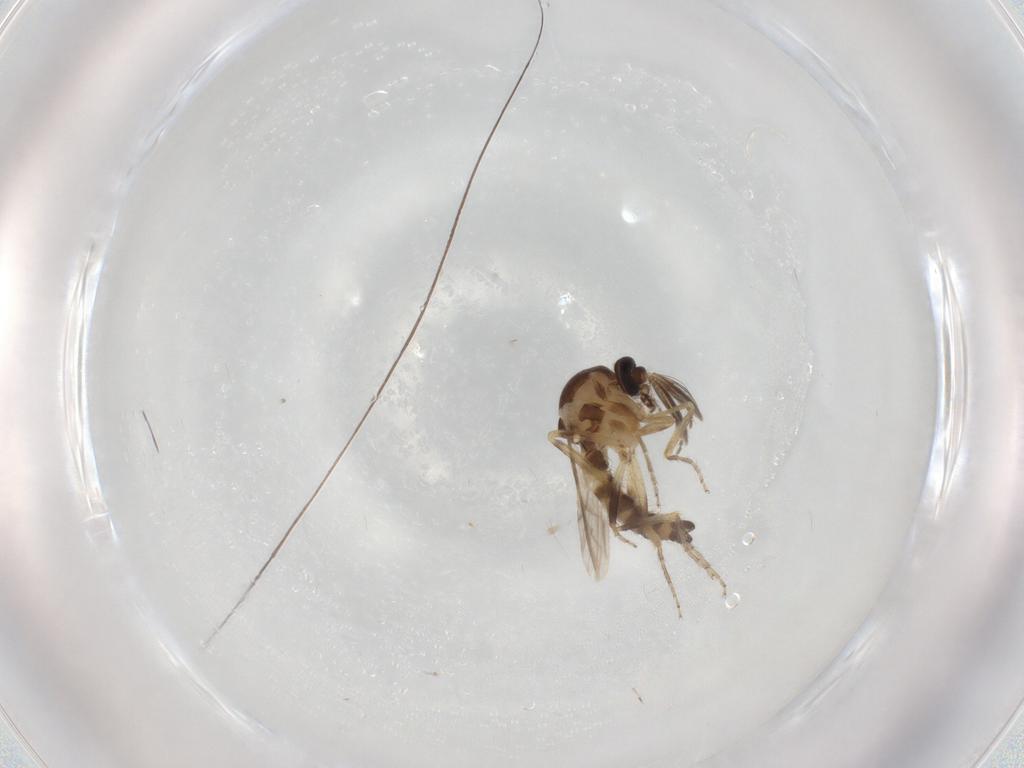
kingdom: Animalia
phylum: Arthropoda
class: Insecta
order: Diptera
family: Ceratopogonidae
